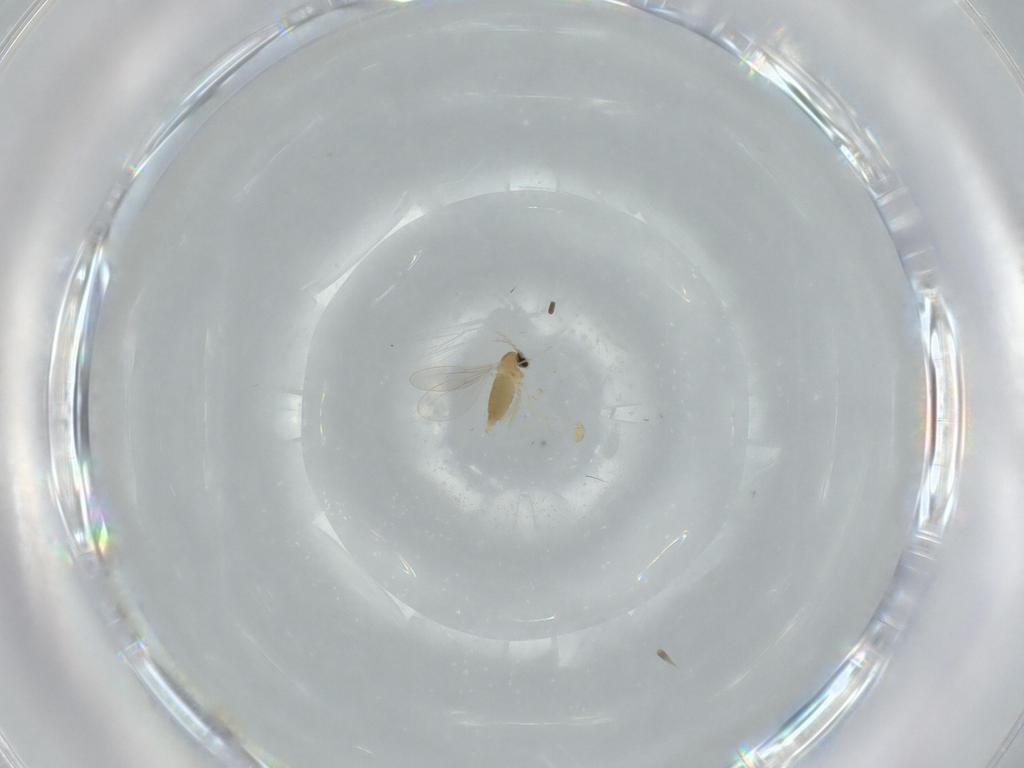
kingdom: Animalia
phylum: Arthropoda
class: Insecta
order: Diptera
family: Cecidomyiidae
